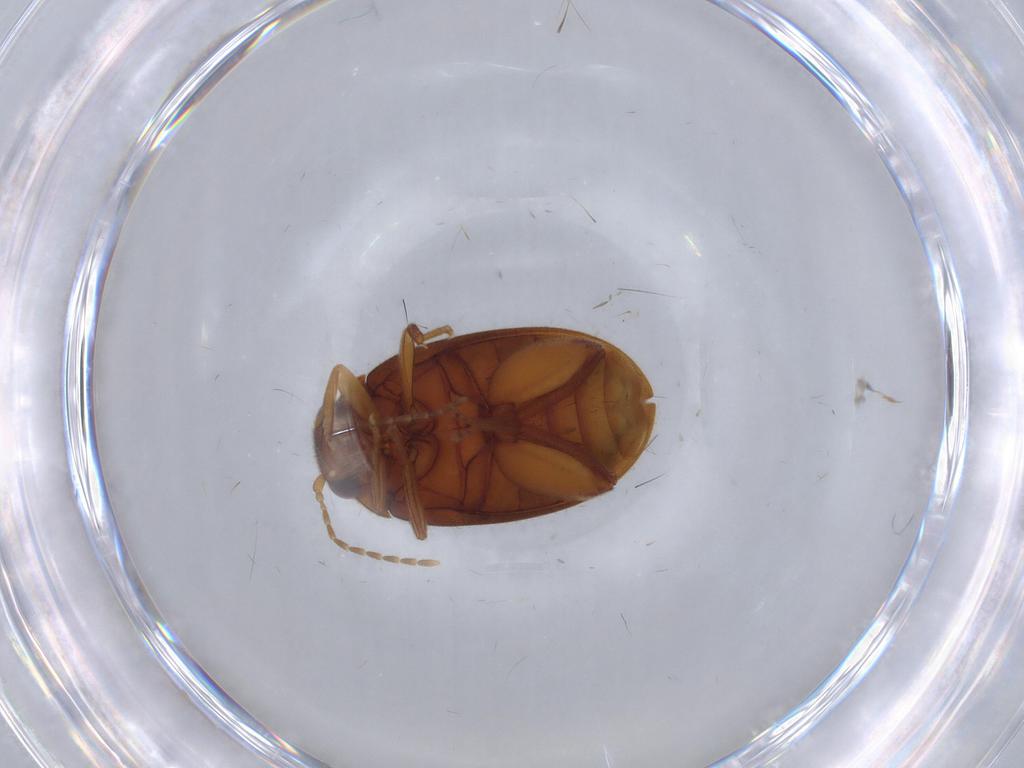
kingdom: Animalia
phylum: Arthropoda
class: Insecta
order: Coleoptera
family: Scirtidae
